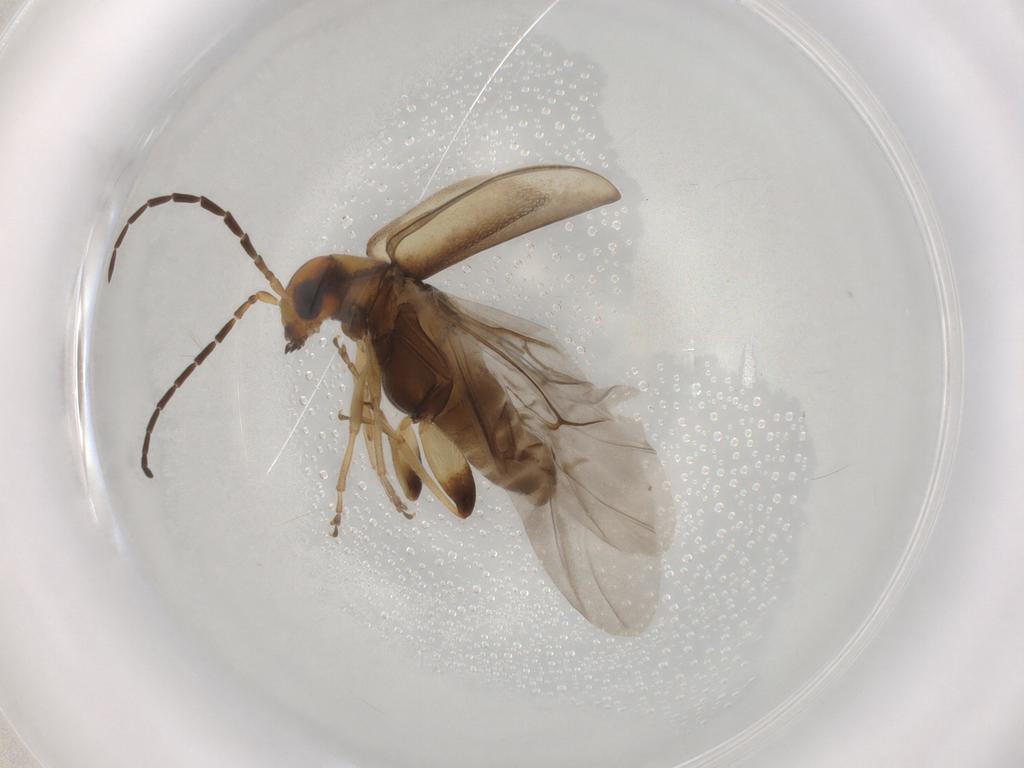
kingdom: Animalia
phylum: Arthropoda
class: Insecta
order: Coleoptera
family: Chrysomelidae
